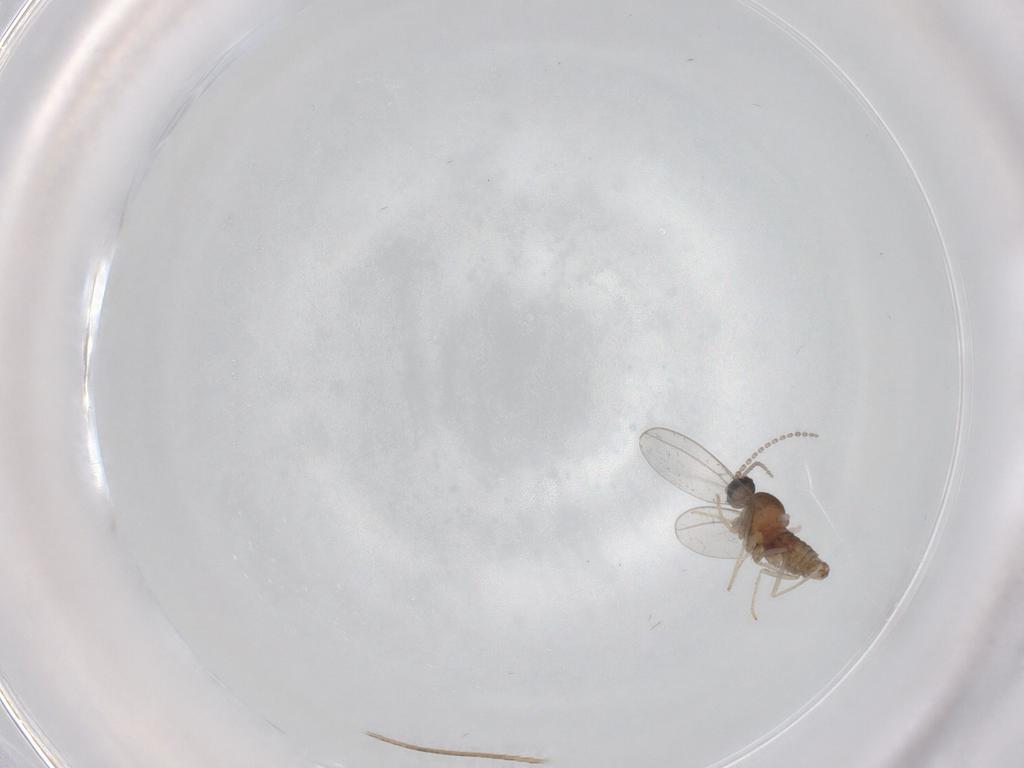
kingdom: Animalia
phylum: Arthropoda
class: Insecta
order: Diptera
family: Cecidomyiidae
